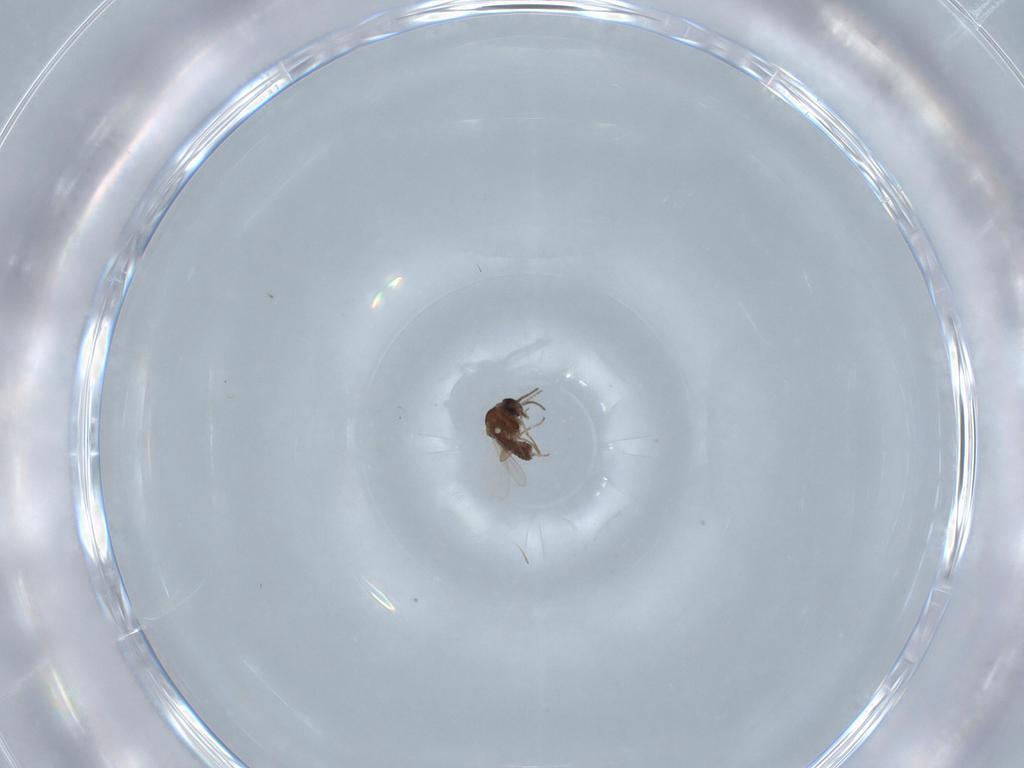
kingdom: Animalia
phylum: Arthropoda
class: Insecta
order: Diptera
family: Ceratopogonidae
